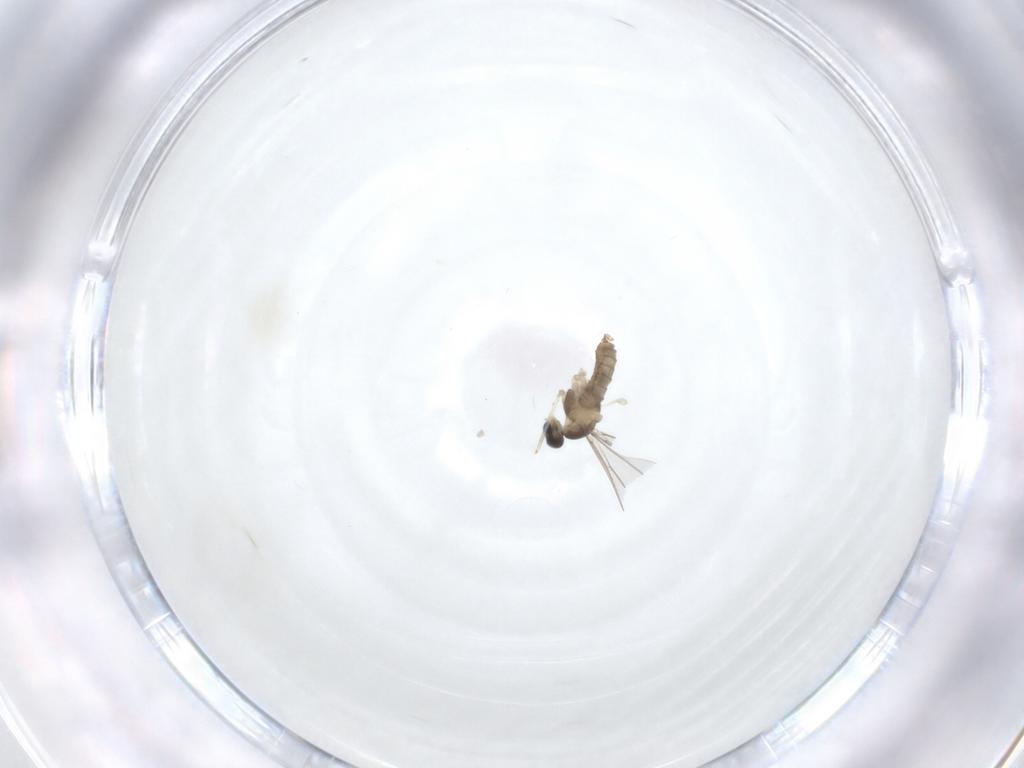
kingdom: Animalia
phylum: Arthropoda
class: Insecta
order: Diptera
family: Cecidomyiidae
